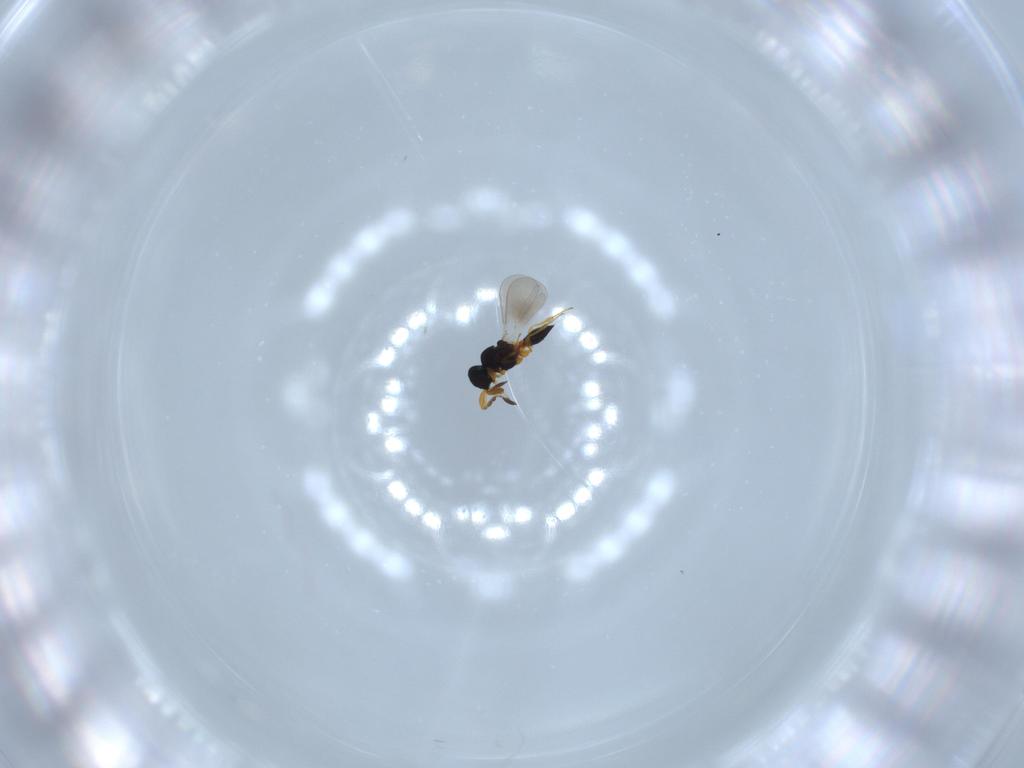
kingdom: Animalia
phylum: Arthropoda
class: Insecta
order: Hymenoptera
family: Platygastridae
